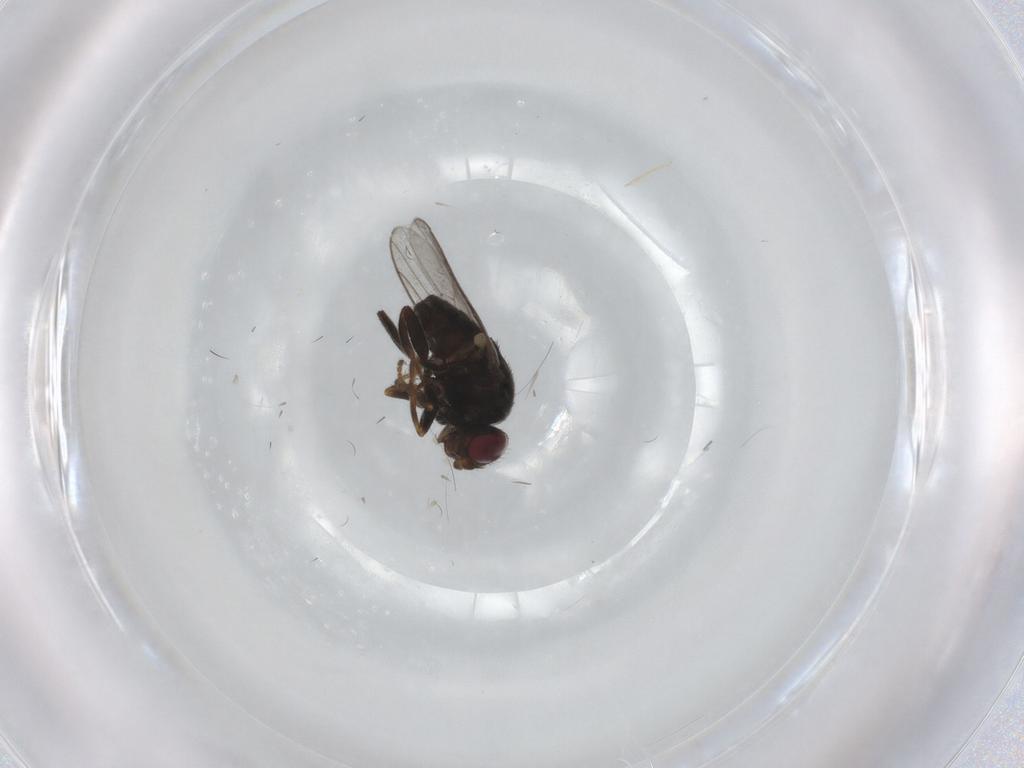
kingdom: Animalia
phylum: Arthropoda
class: Insecta
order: Diptera
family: Chloropidae
